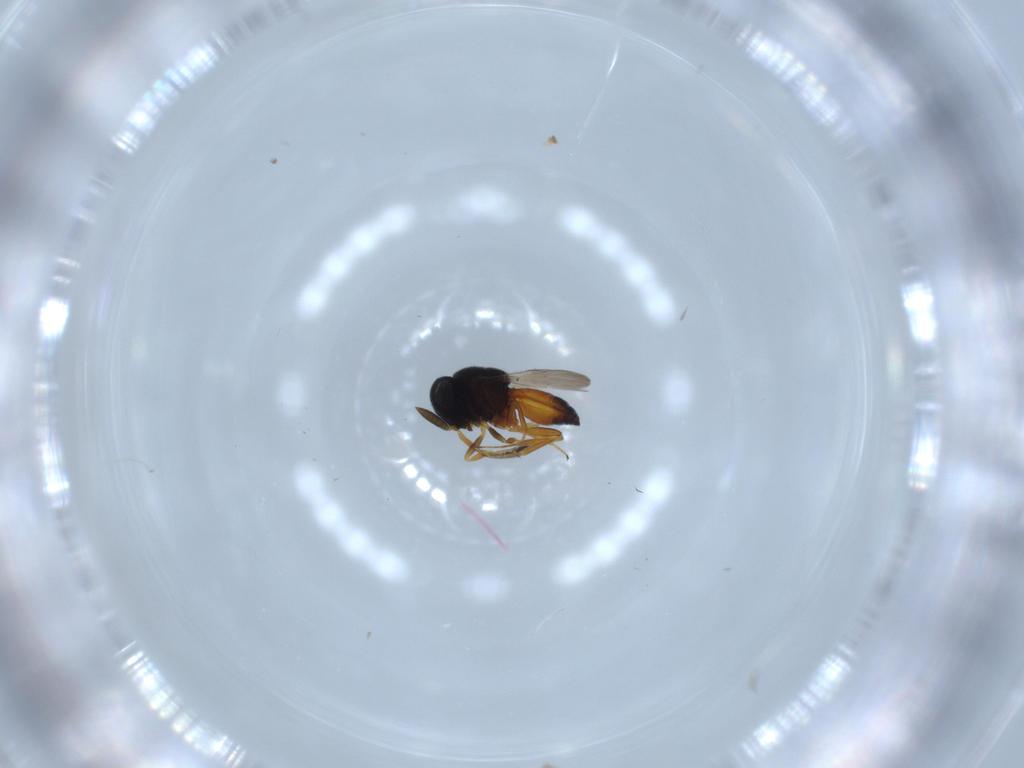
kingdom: Animalia
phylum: Arthropoda
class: Insecta
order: Hymenoptera
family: Scelionidae
